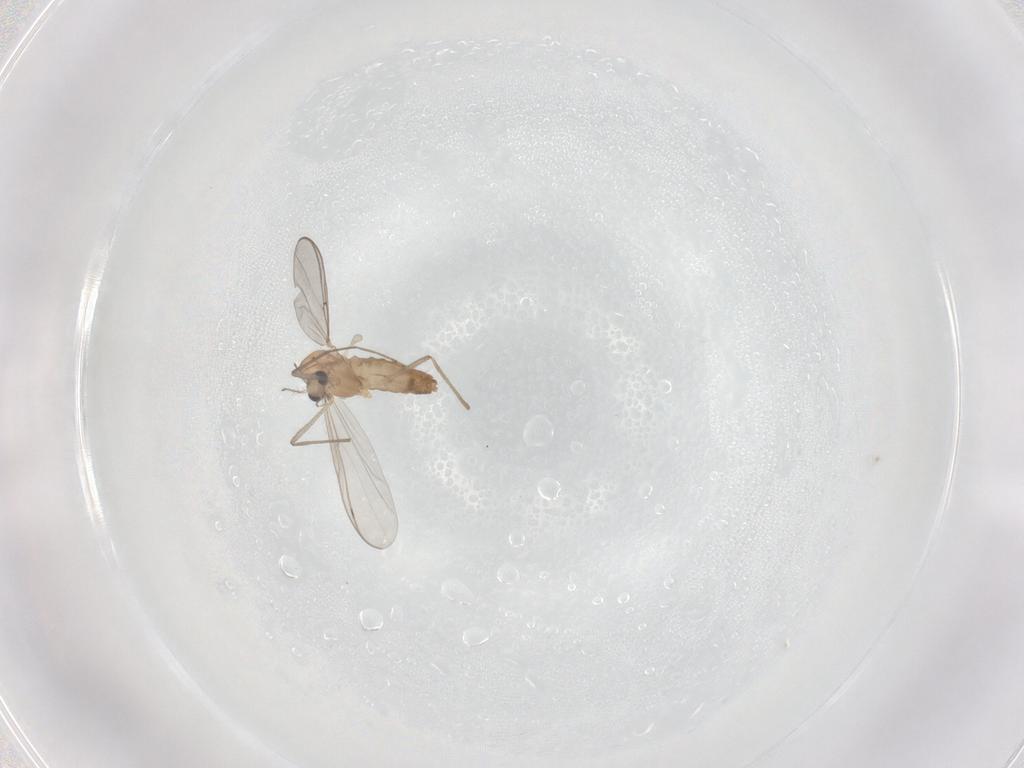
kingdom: Animalia
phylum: Arthropoda
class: Insecta
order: Diptera
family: Chironomidae
